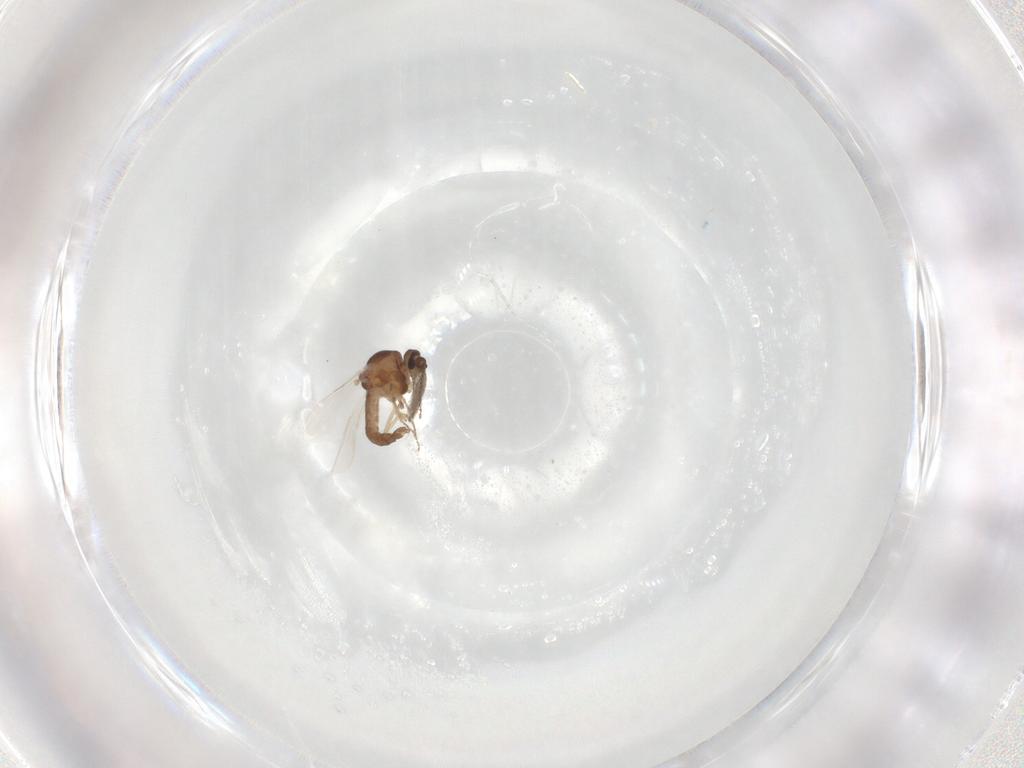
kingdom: Animalia
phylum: Arthropoda
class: Insecta
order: Diptera
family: Ceratopogonidae
